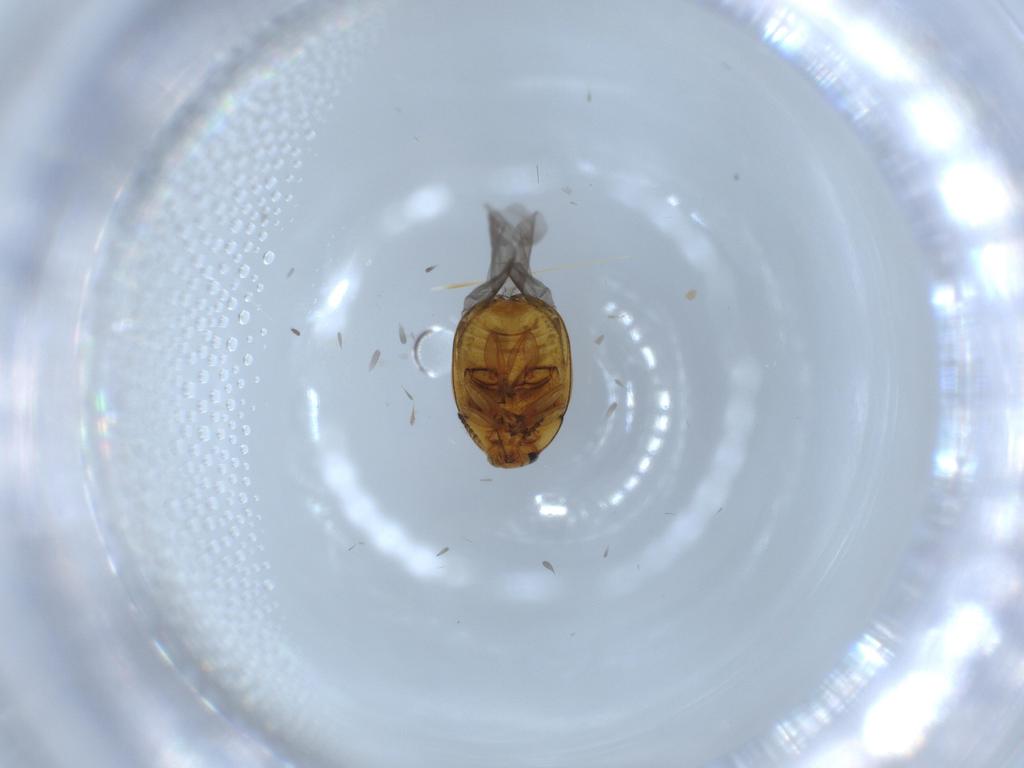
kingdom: Animalia
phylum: Arthropoda
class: Insecta
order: Coleoptera
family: Chrysomelidae
